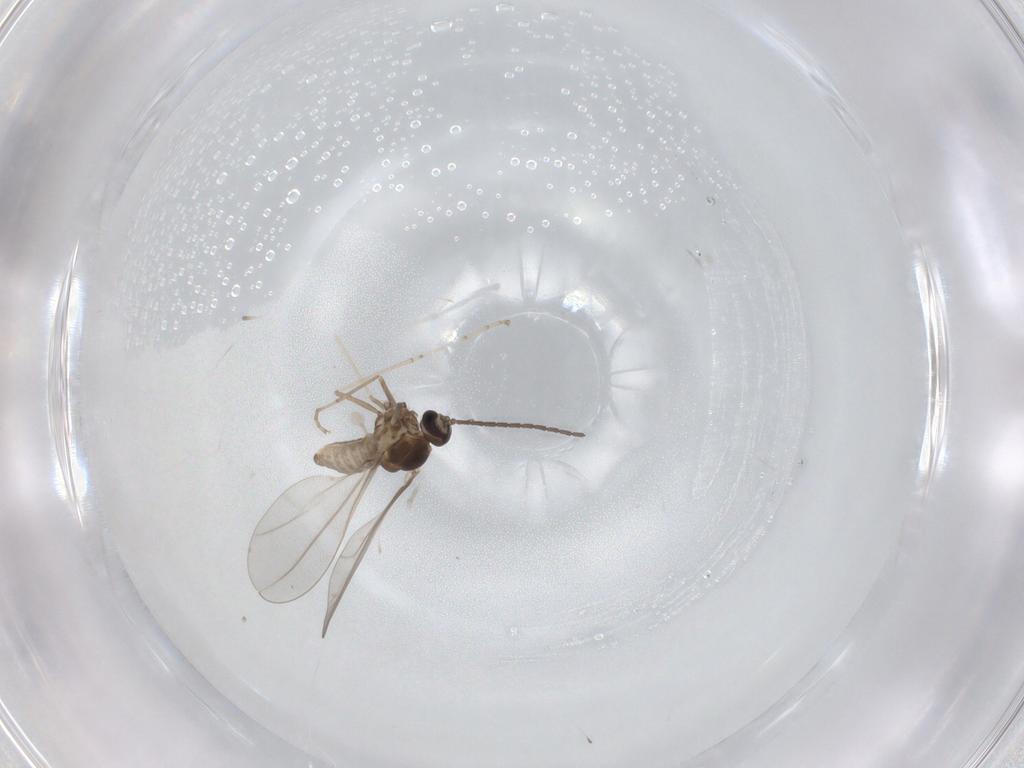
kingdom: Animalia
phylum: Arthropoda
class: Insecta
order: Diptera
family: Cecidomyiidae
